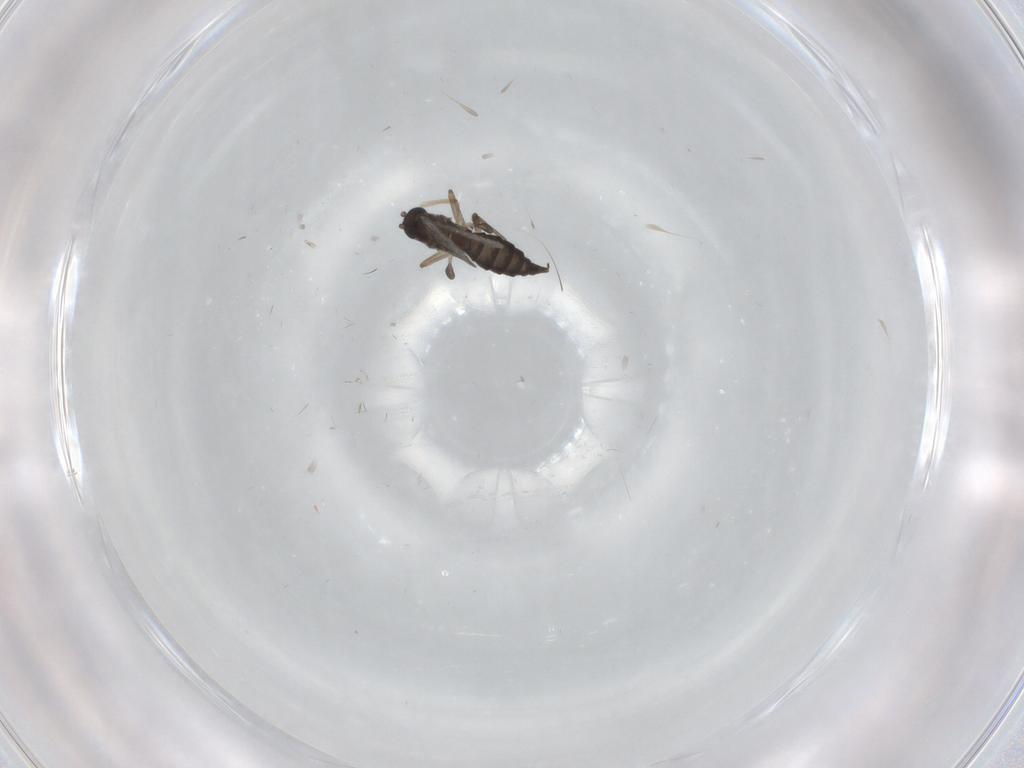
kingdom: Animalia
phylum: Arthropoda
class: Insecta
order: Diptera
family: Sciaridae
